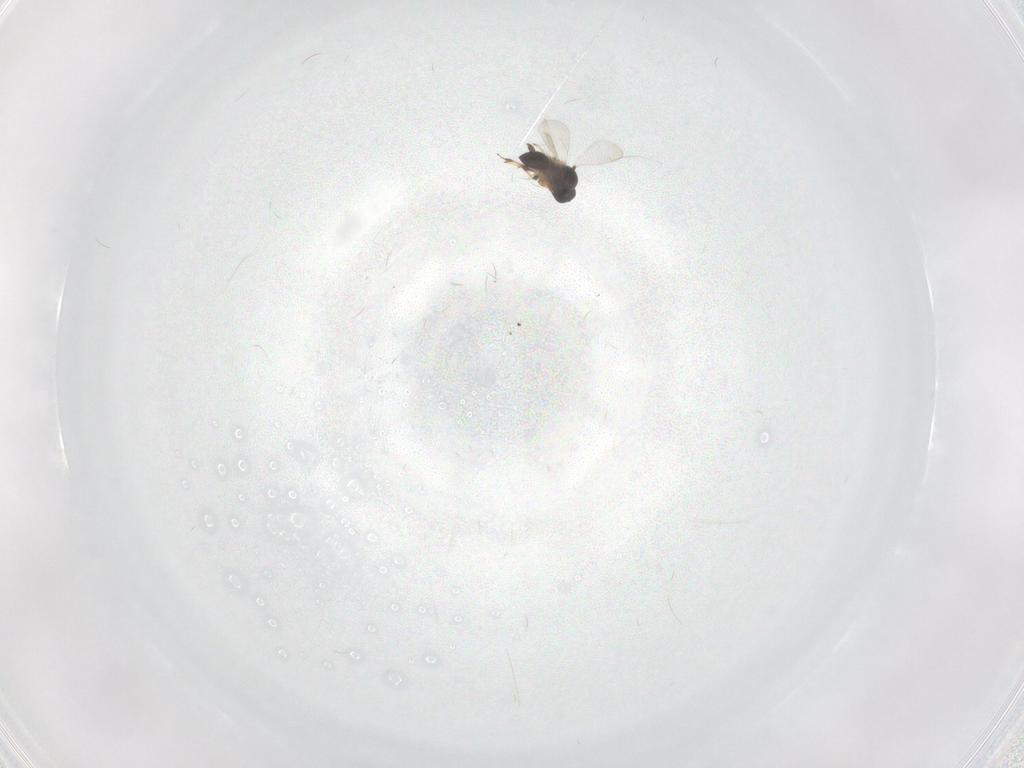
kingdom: Animalia
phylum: Arthropoda
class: Insecta
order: Hymenoptera
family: Platygastridae
